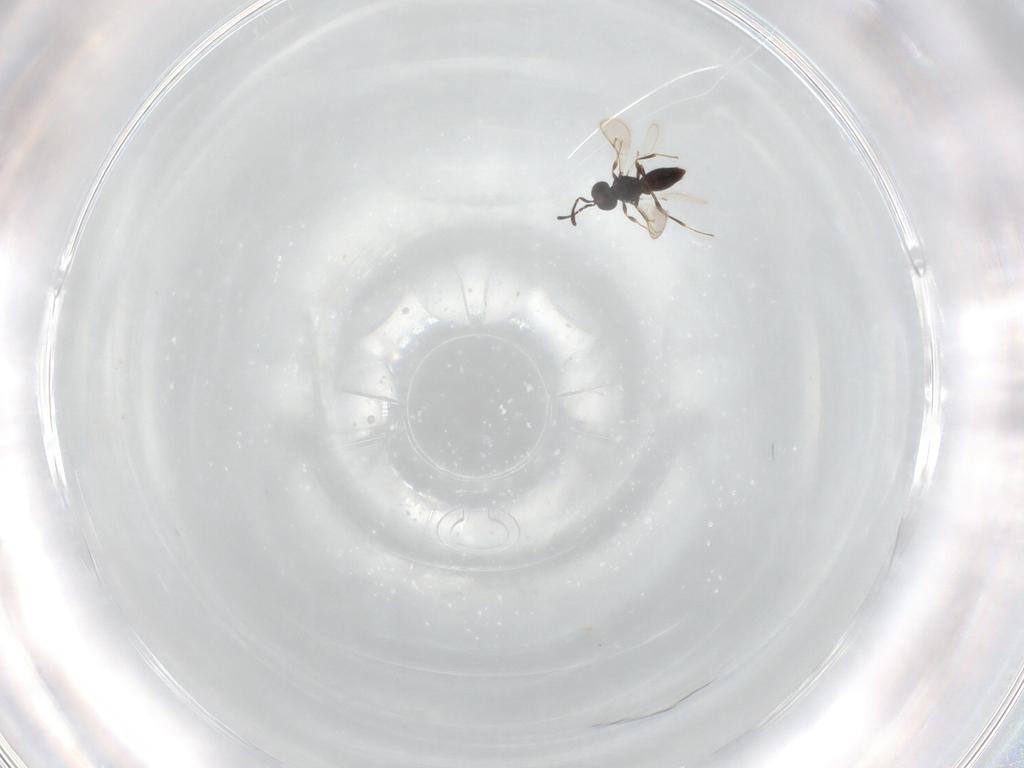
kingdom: Animalia
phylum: Arthropoda
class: Insecta
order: Hymenoptera
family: Scelionidae
